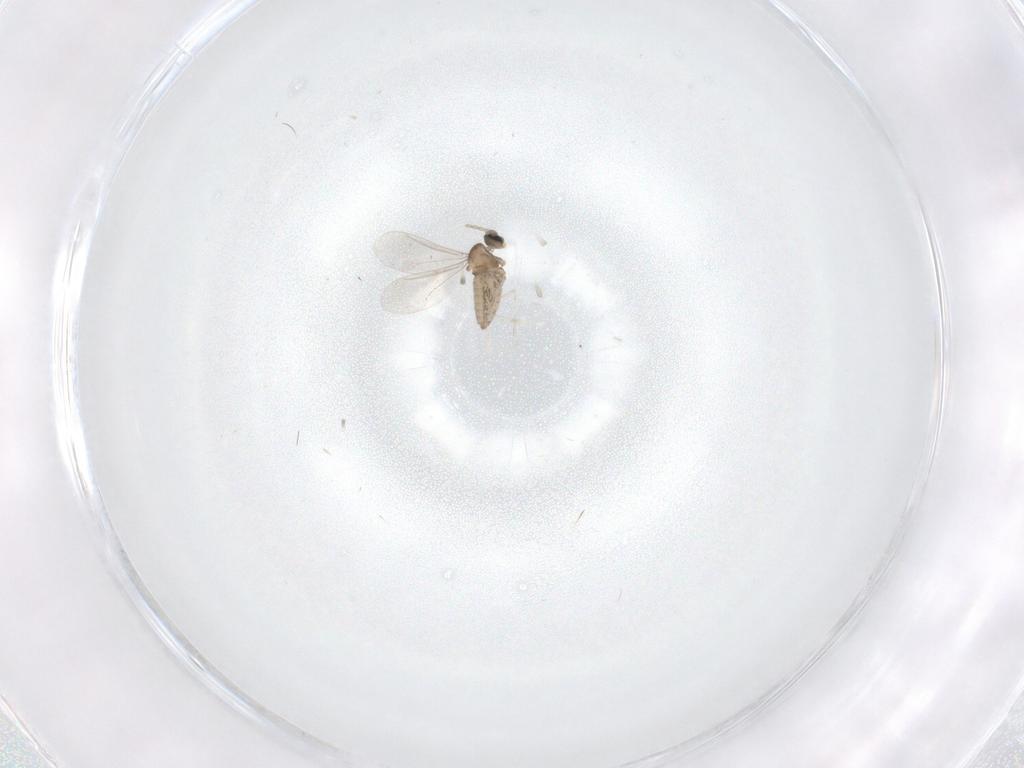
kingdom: Animalia
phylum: Arthropoda
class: Insecta
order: Diptera
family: Cecidomyiidae
